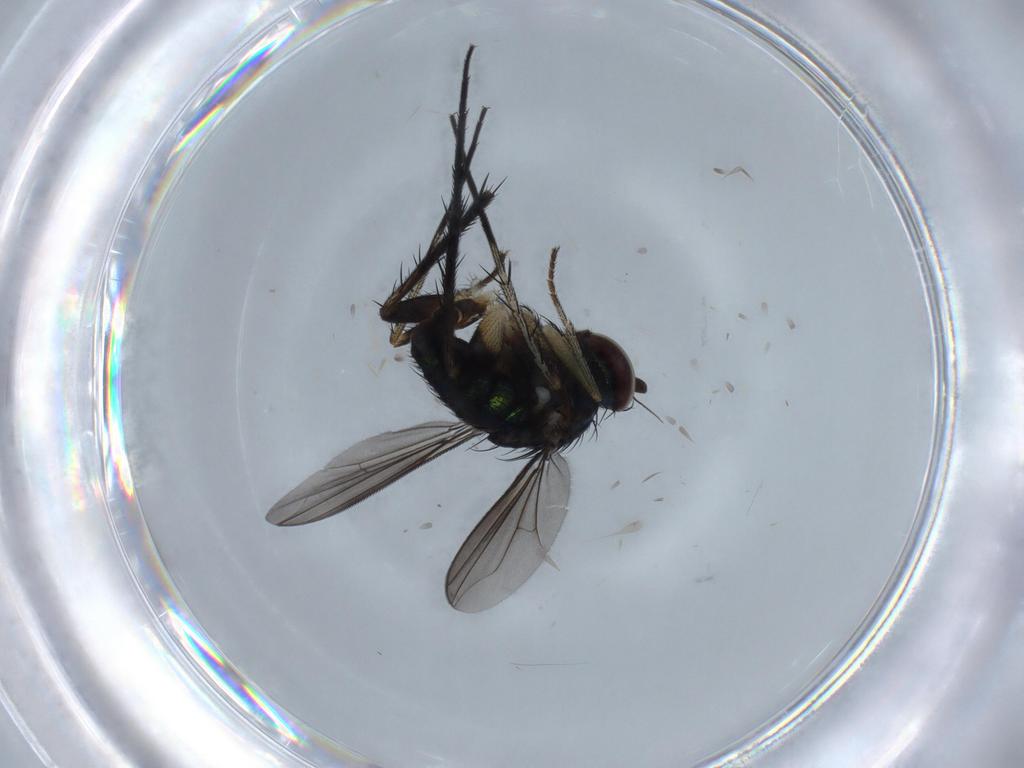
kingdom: Animalia
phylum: Arthropoda
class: Insecta
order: Diptera
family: Dolichopodidae
